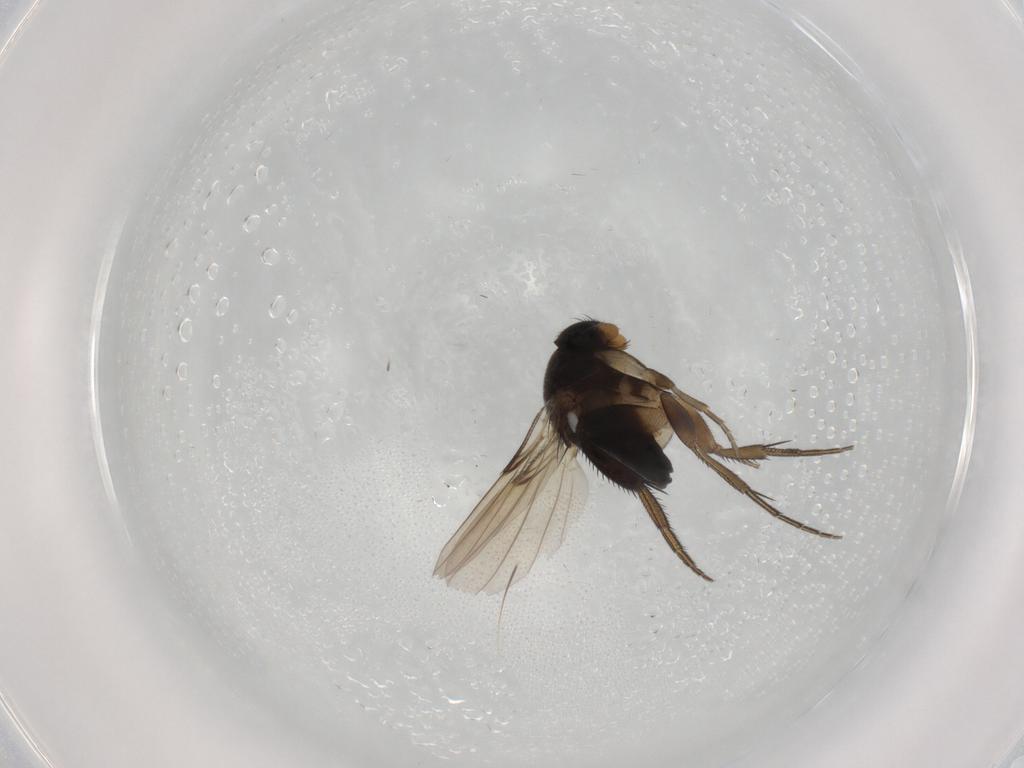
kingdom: Animalia
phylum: Arthropoda
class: Insecta
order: Diptera
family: Phoridae
